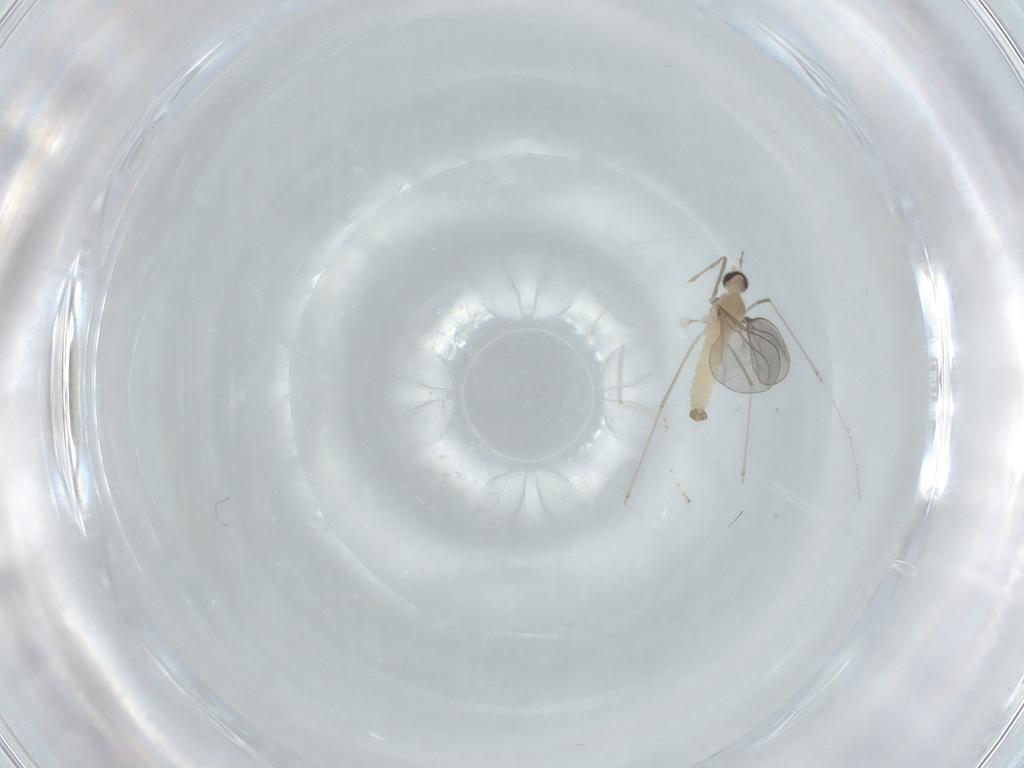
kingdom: Animalia
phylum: Arthropoda
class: Insecta
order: Diptera
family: Cecidomyiidae
